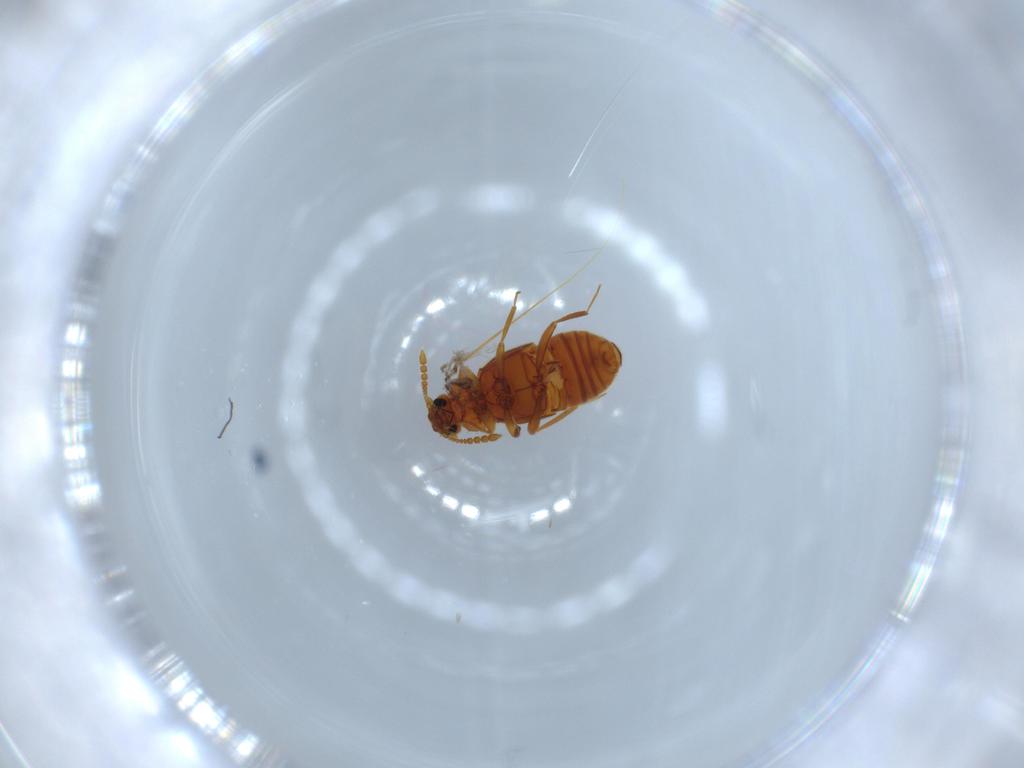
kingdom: Animalia
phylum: Arthropoda
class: Insecta
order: Coleoptera
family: Staphylinidae
